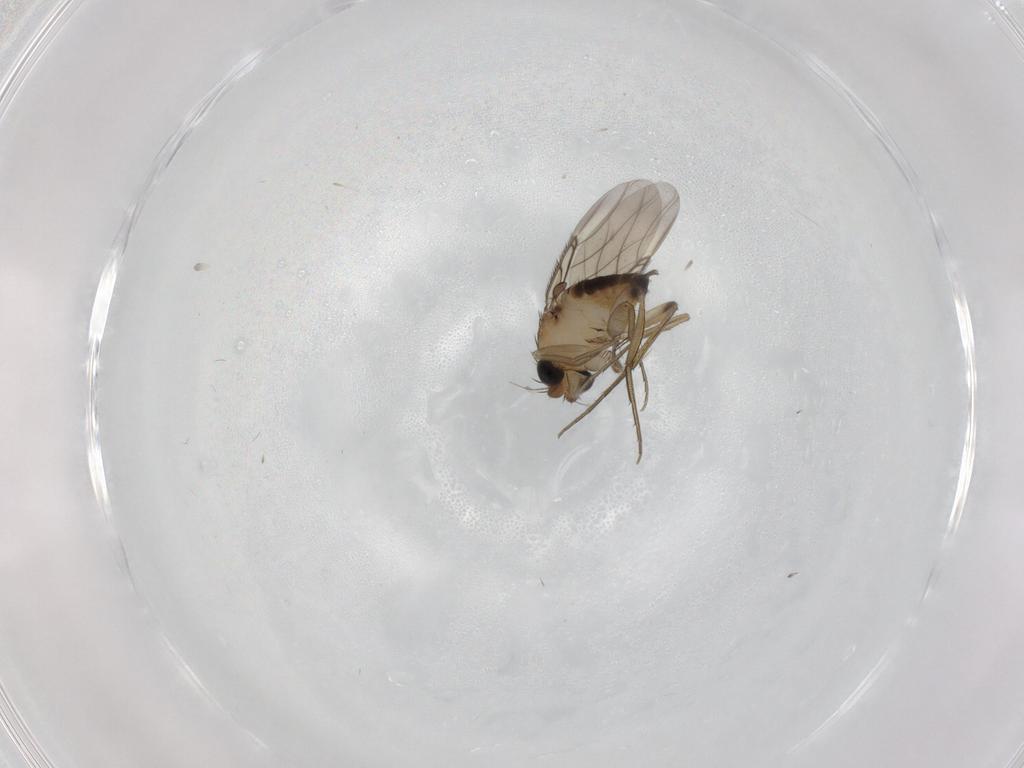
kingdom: Animalia
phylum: Arthropoda
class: Insecta
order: Diptera
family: Phoridae
